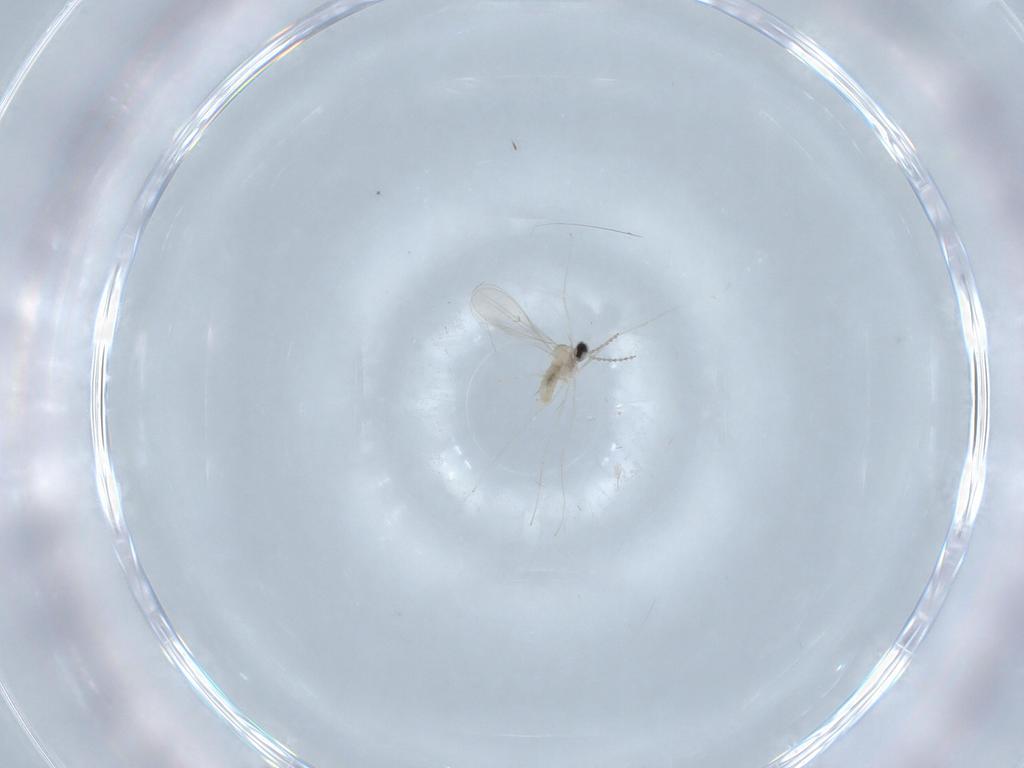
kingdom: Animalia
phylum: Arthropoda
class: Insecta
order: Diptera
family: Cecidomyiidae
